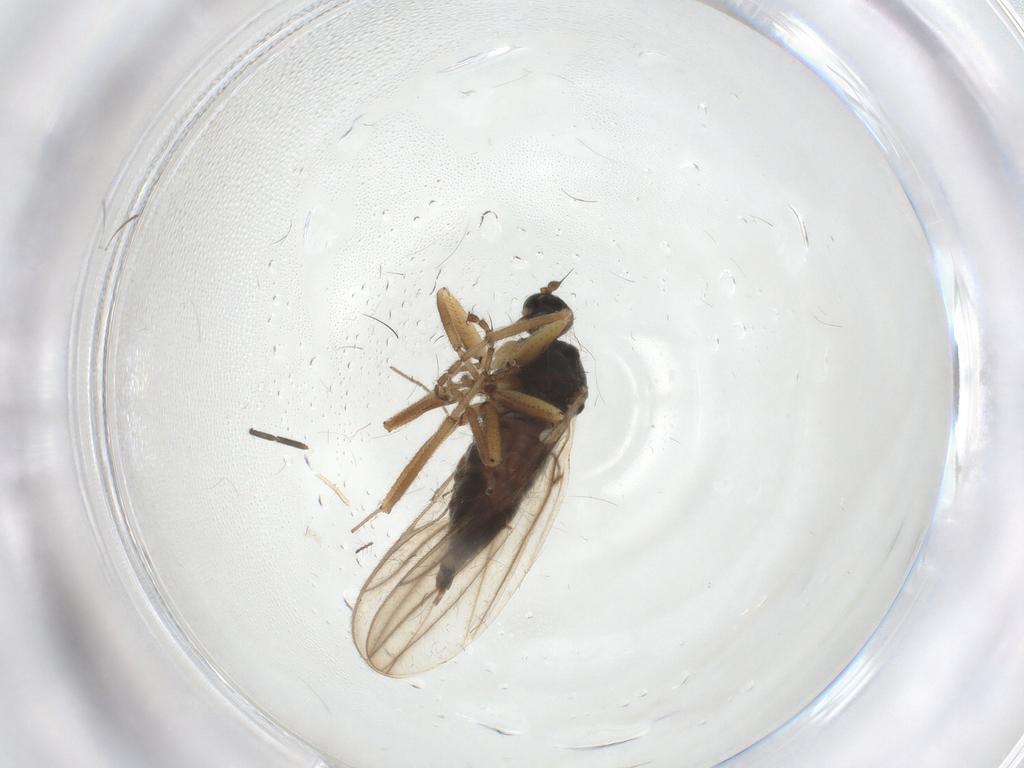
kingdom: Animalia
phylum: Arthropoda
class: Insecta
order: Diptera
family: Hybotidae
